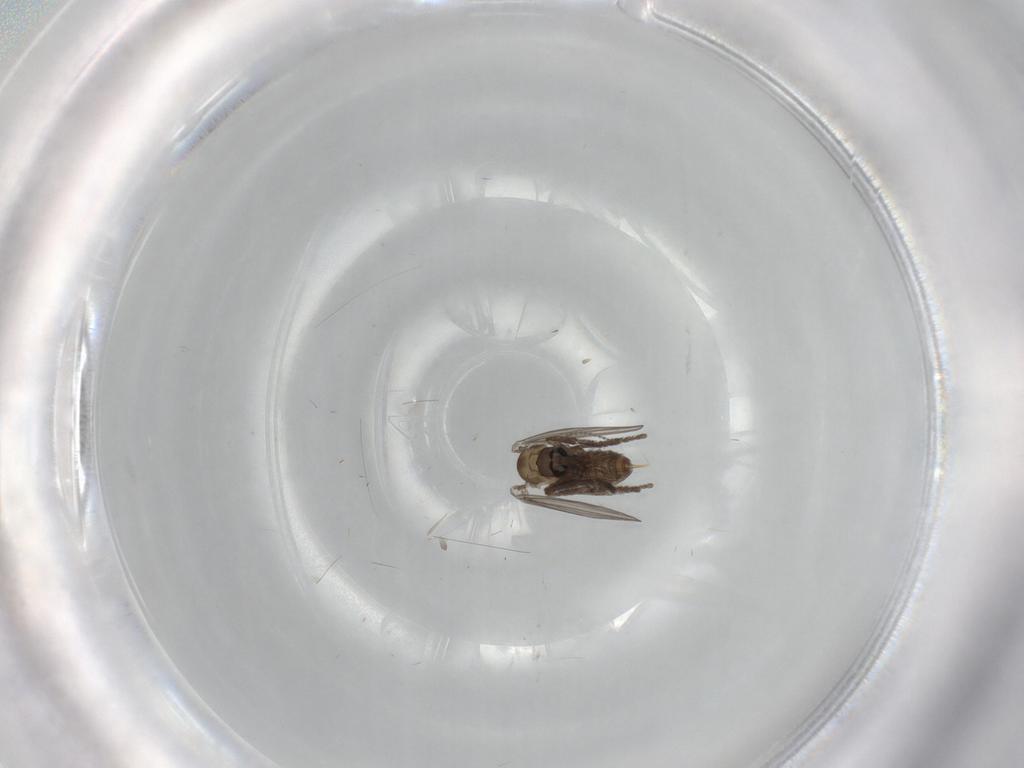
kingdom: Animalia
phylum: Arthropoda
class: Insecta
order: Diptera
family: Psychodidae
